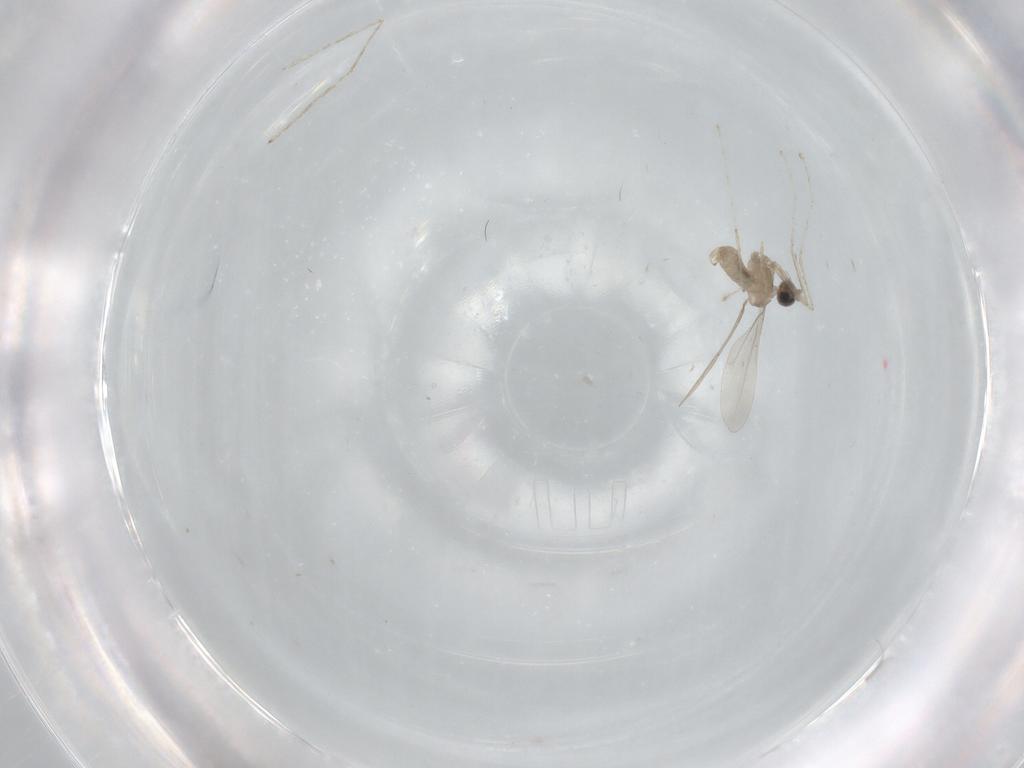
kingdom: Animalia
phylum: Arthropoda
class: Insecta
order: Diptera
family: Cecidomyiidae
